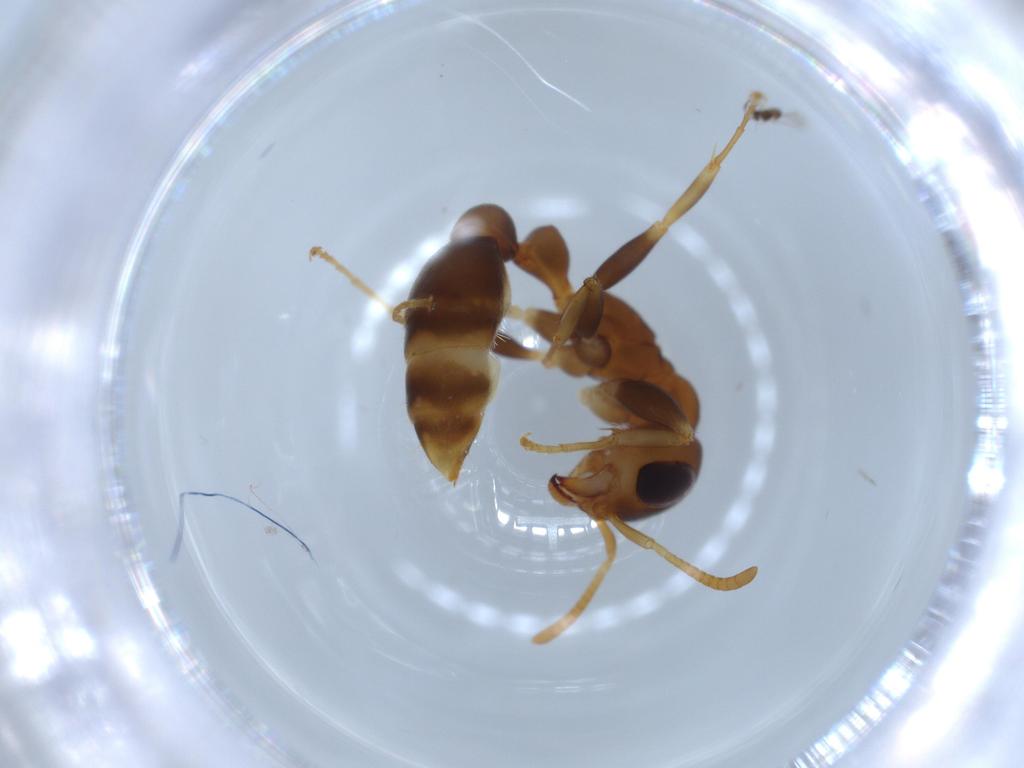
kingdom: Animalia
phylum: Arthropoda
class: Insecta
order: Hymenoptera
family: Formicidae
